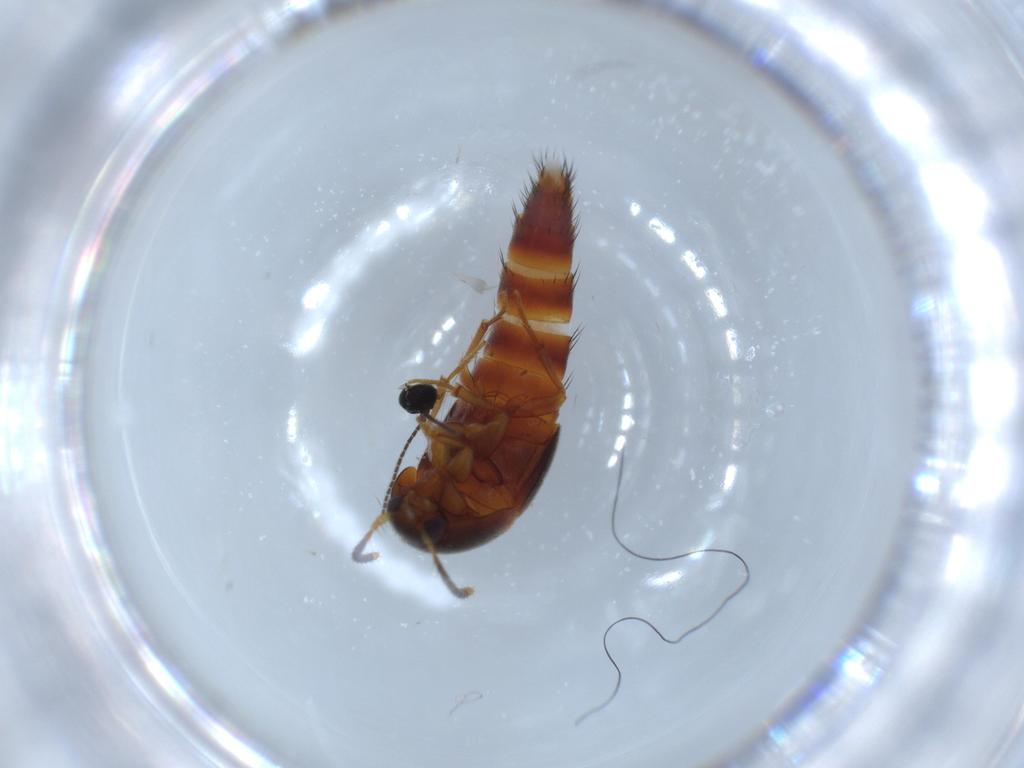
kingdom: Animalia
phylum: Arthropoda
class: Insecta
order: Coleoptera
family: Staphylinidae
